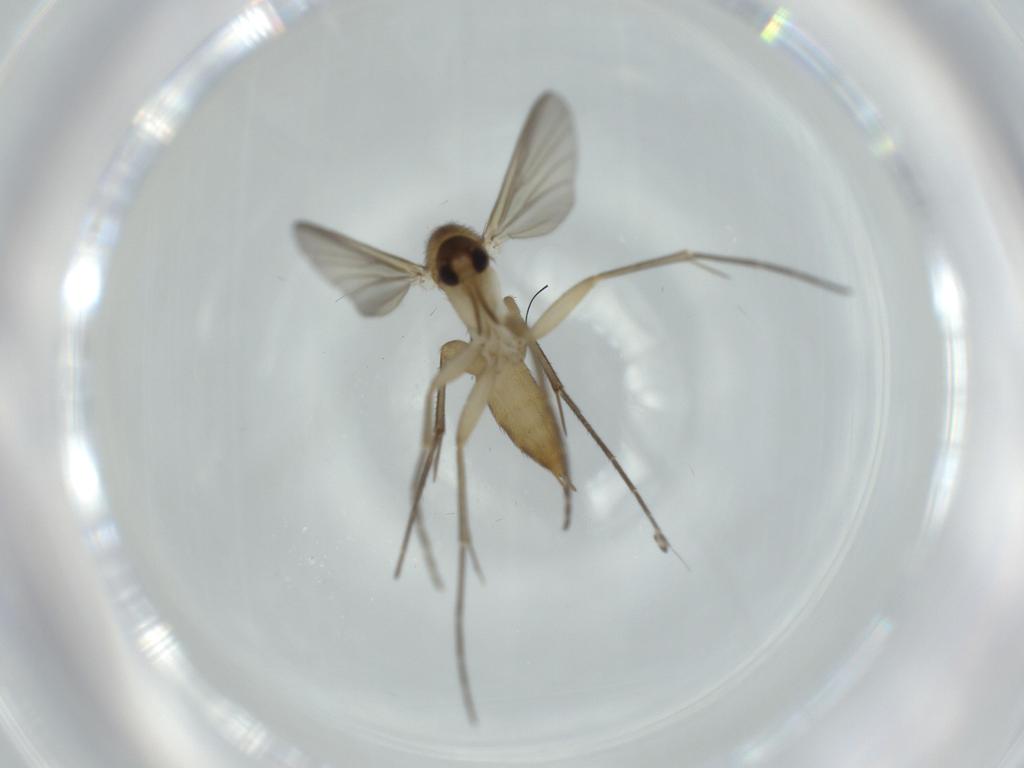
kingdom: Animalia
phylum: Arthropoda
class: Insecta
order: Diptera
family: Cecidomyiidae
